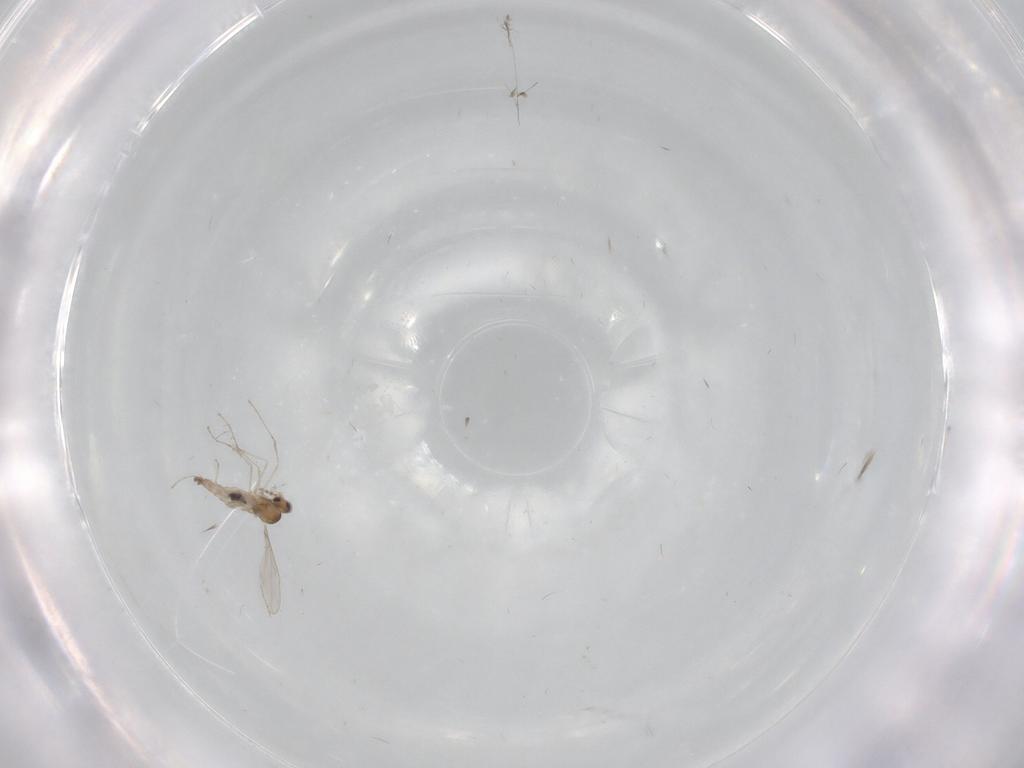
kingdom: Animalia
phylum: Arthropoda
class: Insecta
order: Diptera
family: Cecidomyiidae
